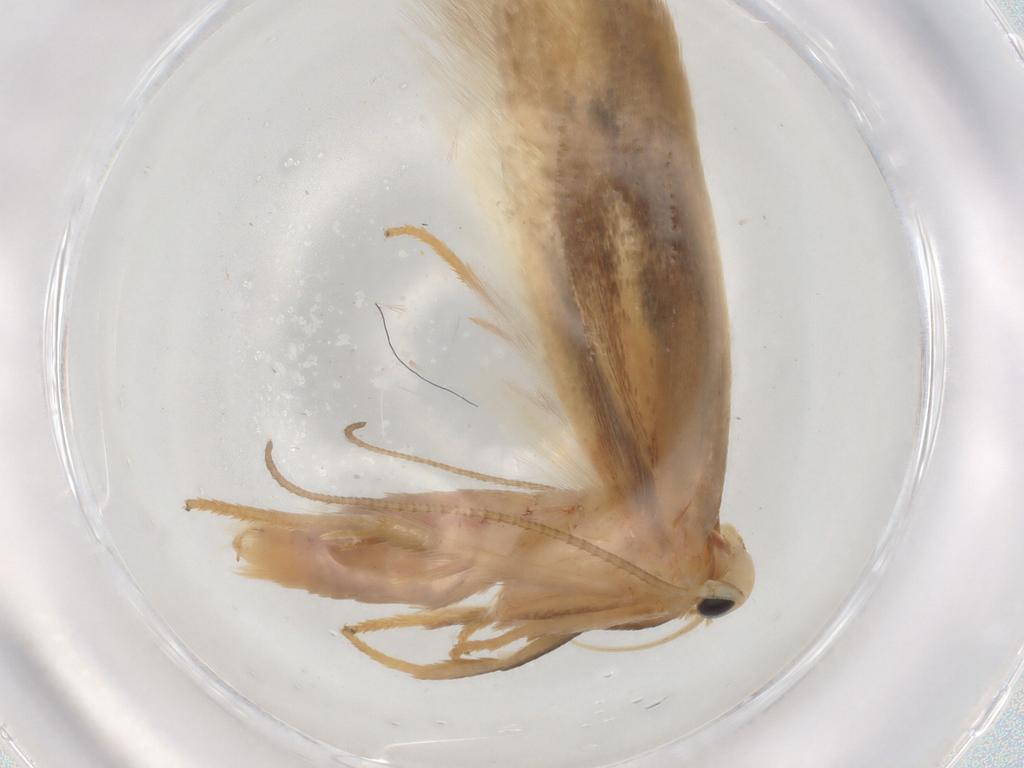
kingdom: Animalia
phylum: Arthropoda
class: Insecta
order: Lepidoptera
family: Geometridae
